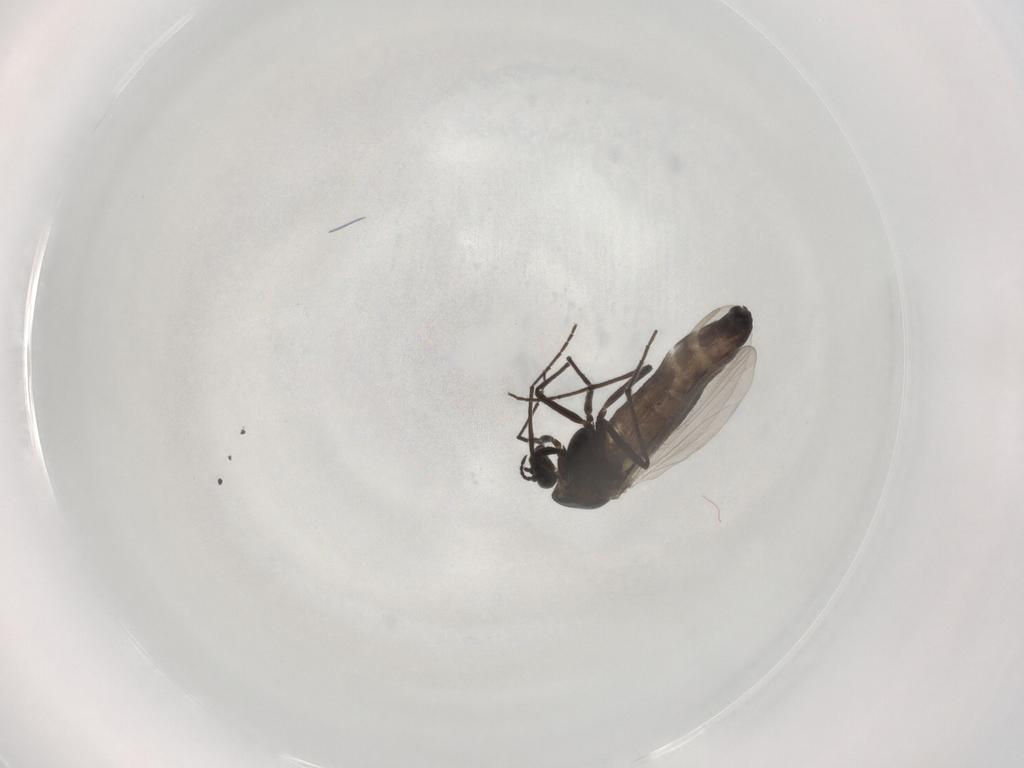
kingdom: Animalia
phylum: Arthropoda
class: Insecta
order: Diptera
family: Chironomidae
